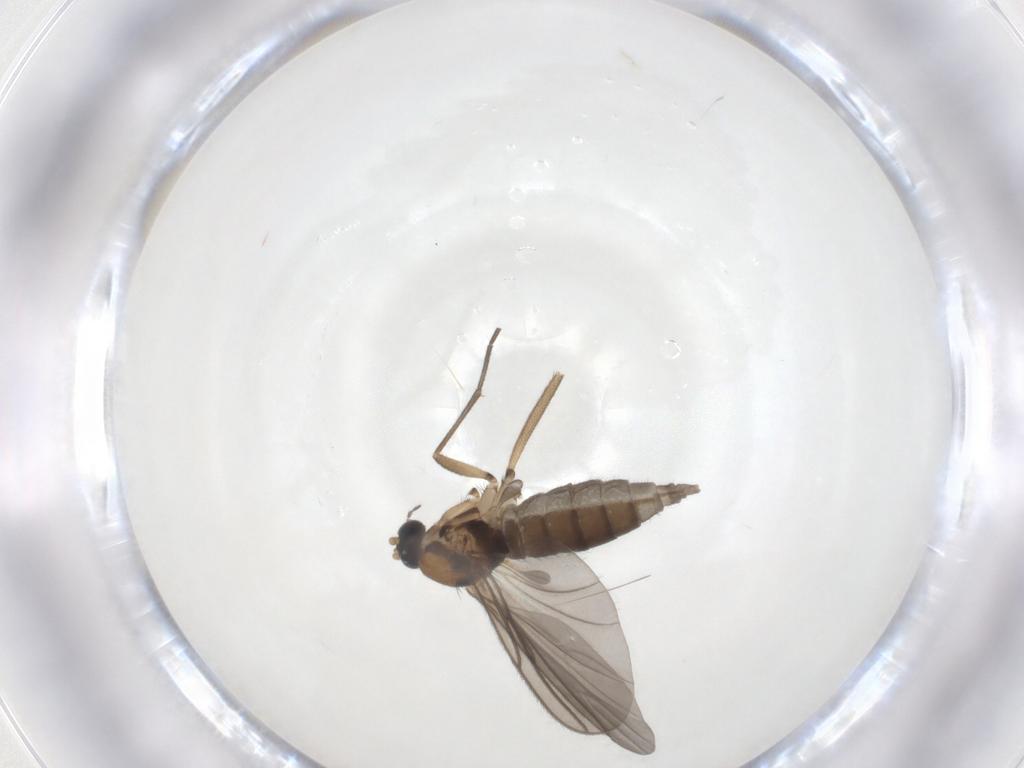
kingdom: Animalia
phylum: Arthropoda
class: Insecta
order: Diptera
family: Sciaridae
